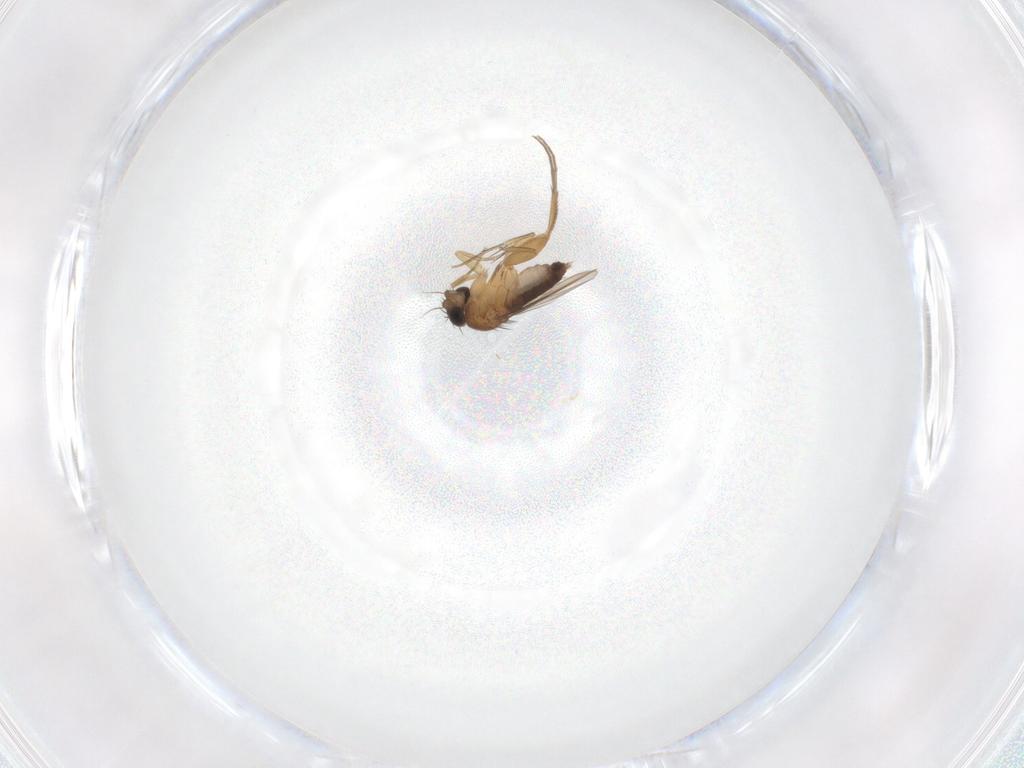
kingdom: Animalia
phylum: Arthropoda
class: Insecta
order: Diptera
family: Phoridae
